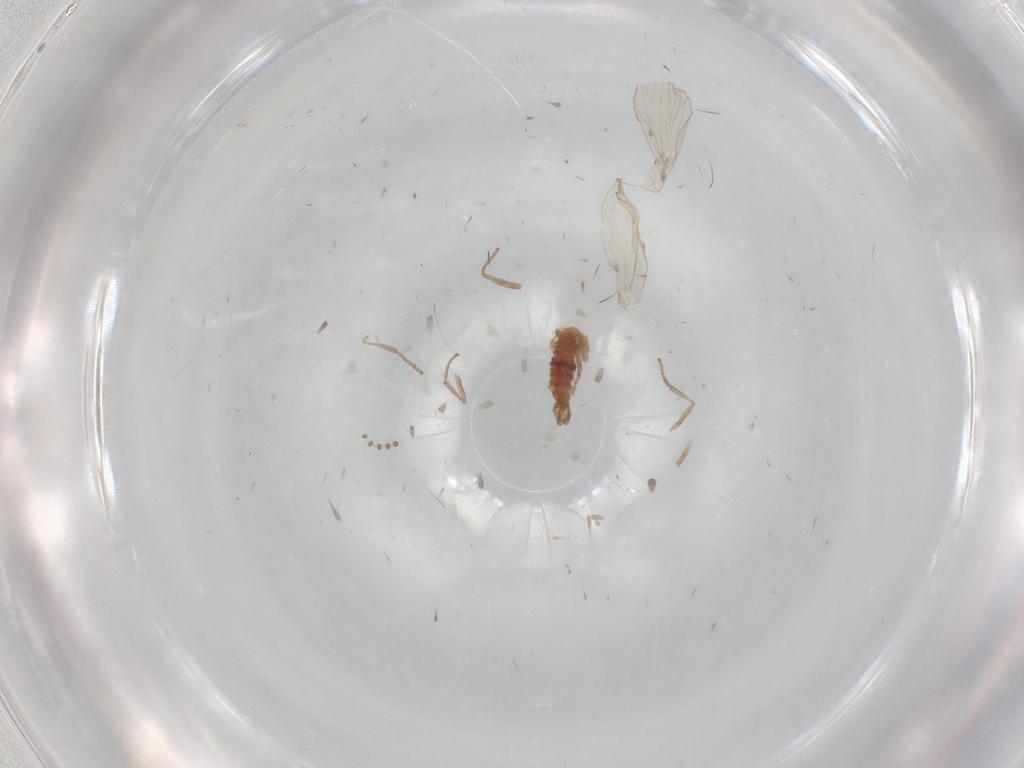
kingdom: Animalia
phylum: Arthropoda
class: Insecta
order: Diptera
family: Psychodidae
